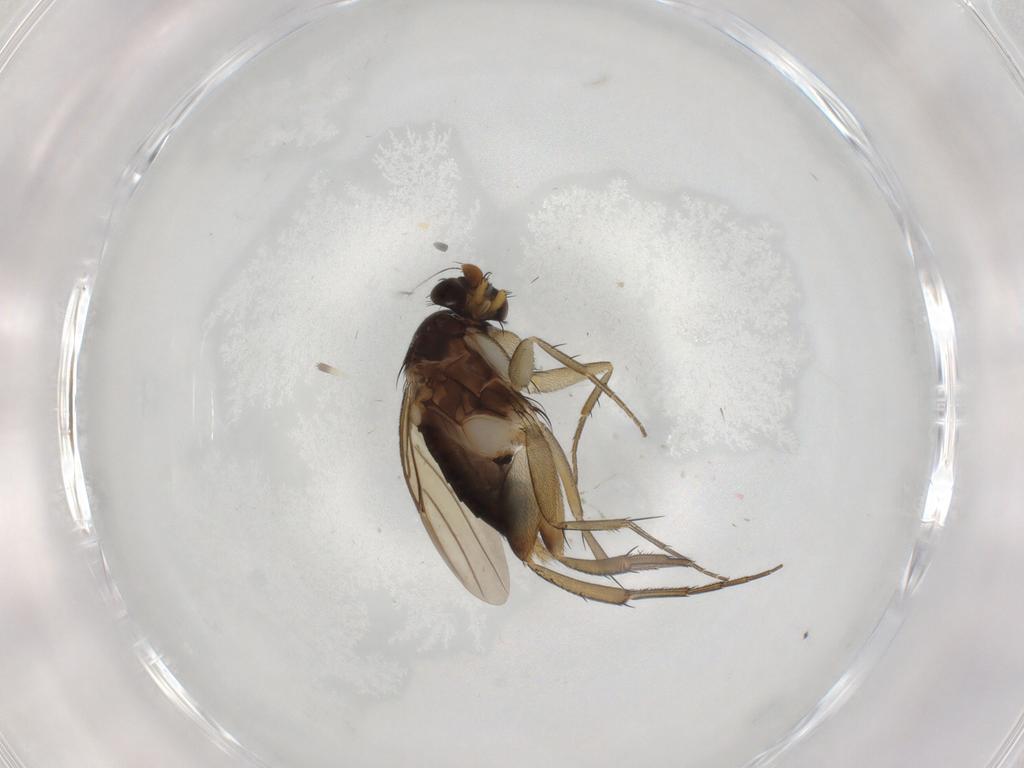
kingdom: Animalia
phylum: Arthropoda
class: Insecta
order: Diptera
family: Phoridae
